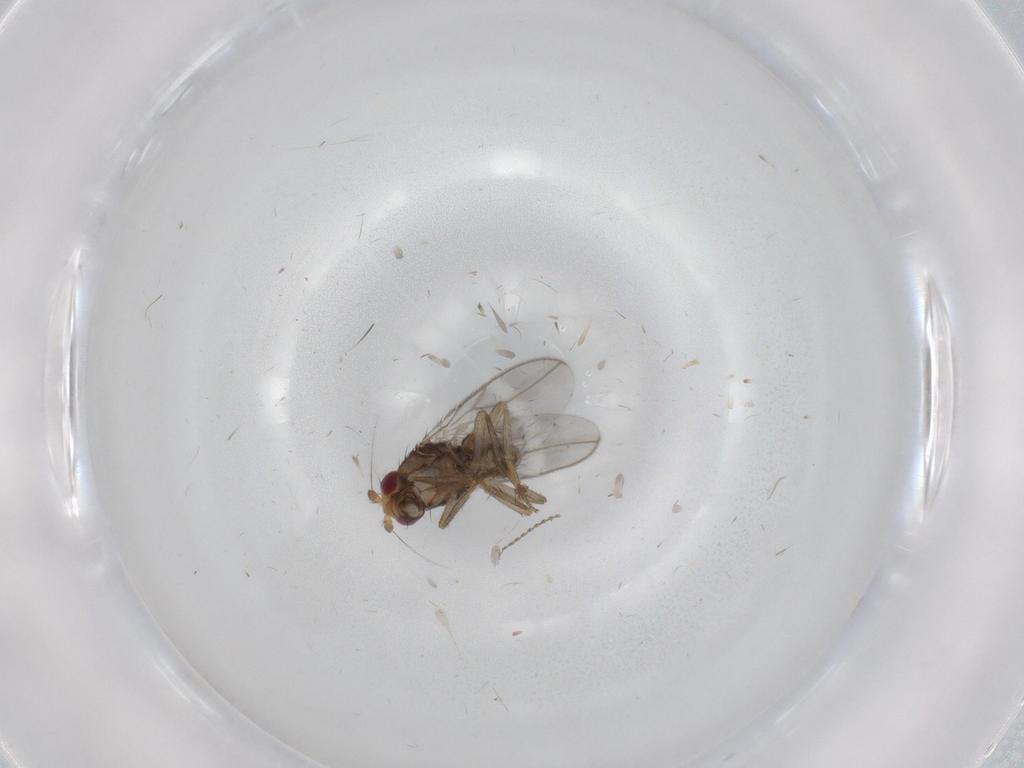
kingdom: Animalia
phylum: Arthropoda
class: Insecta
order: Diptera
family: Sphaeroceridae
